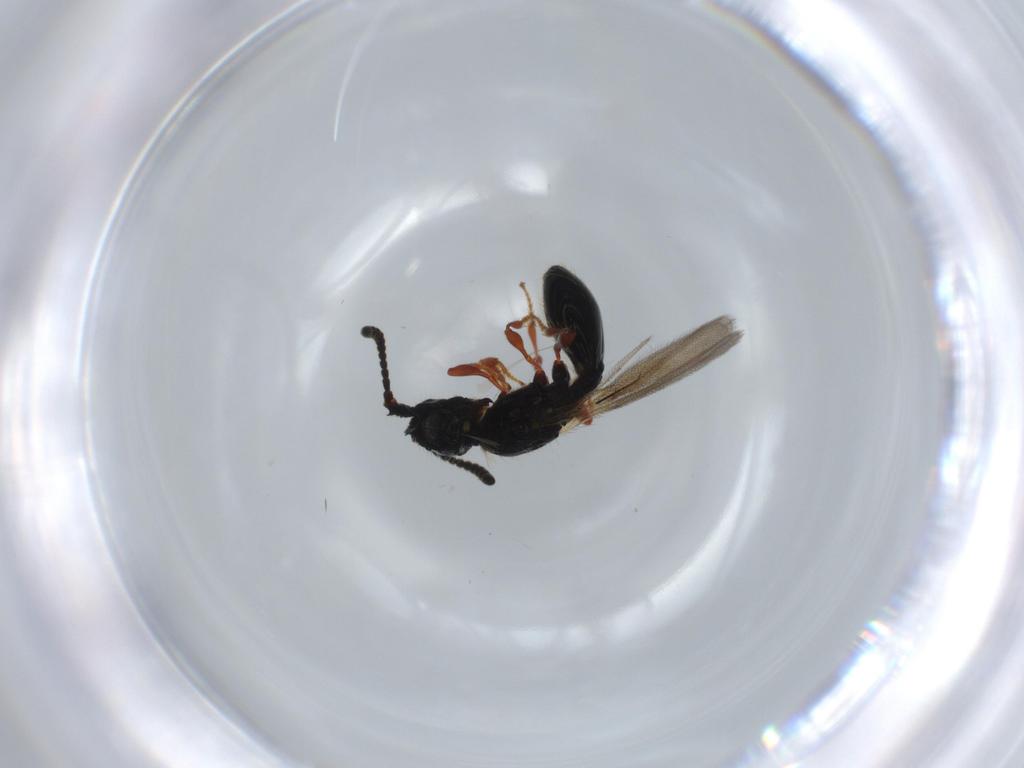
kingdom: Animalia
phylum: Arthropoda
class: Insecta
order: Hymenoptera
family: Diapriidae
